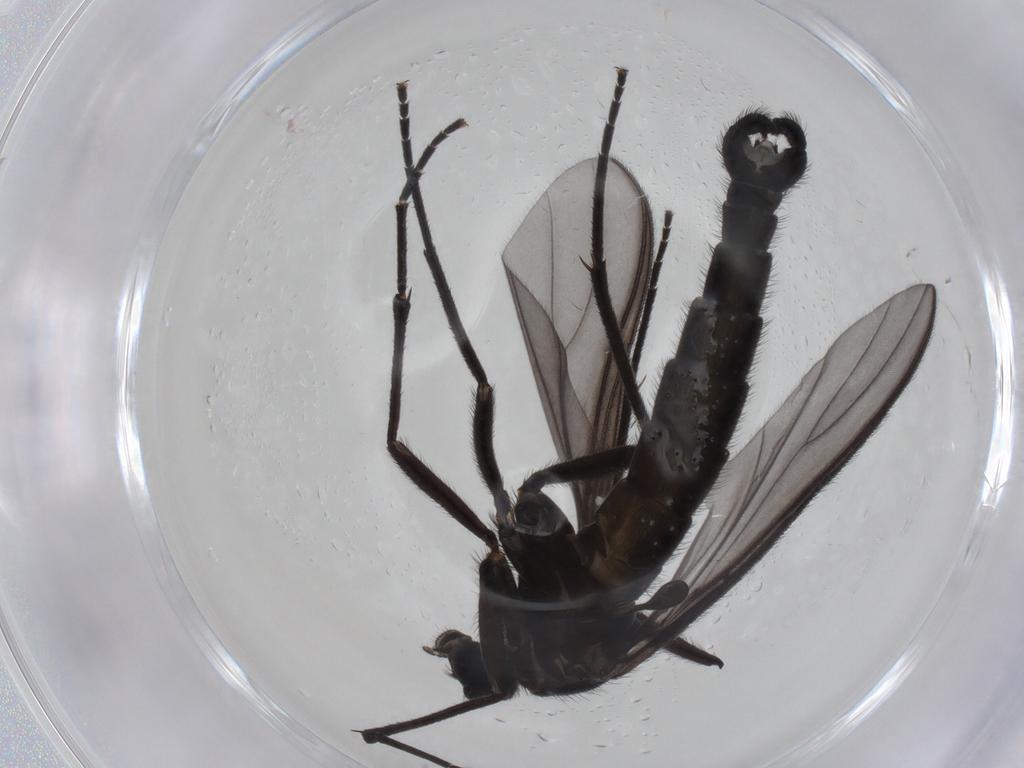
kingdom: Animalia
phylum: Arthropoda
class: Insecta
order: Diptera
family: Sciaridae
